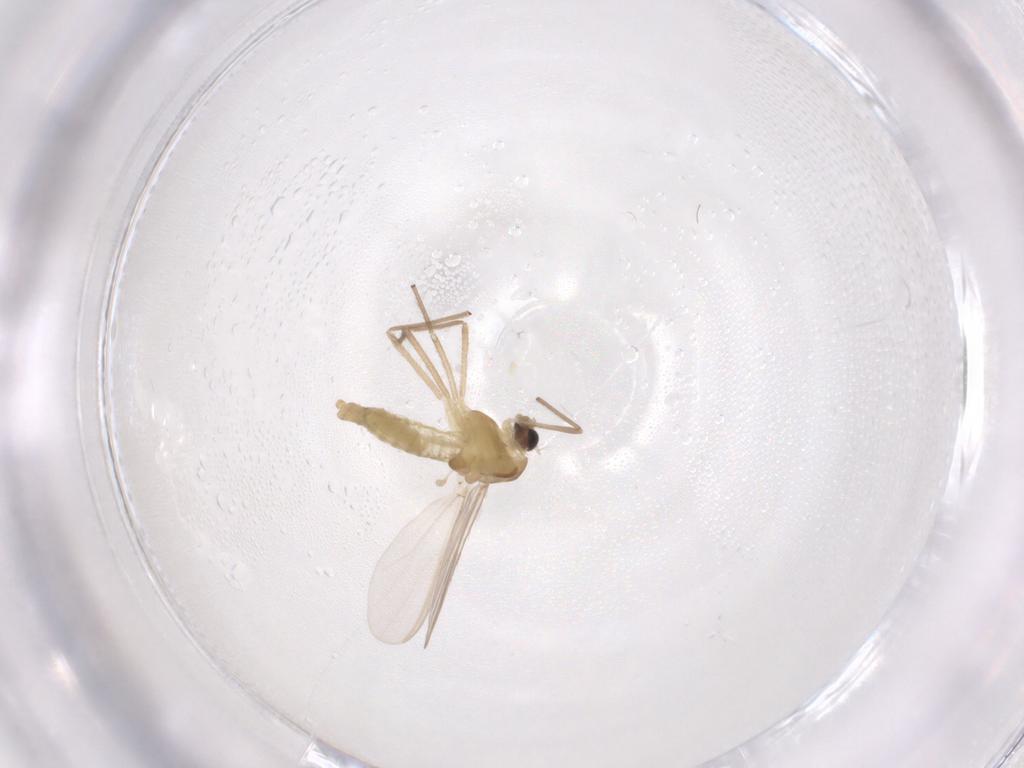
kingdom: Animalia
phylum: Arthropoda
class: Insecta
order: Diptera
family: Chironomidae
